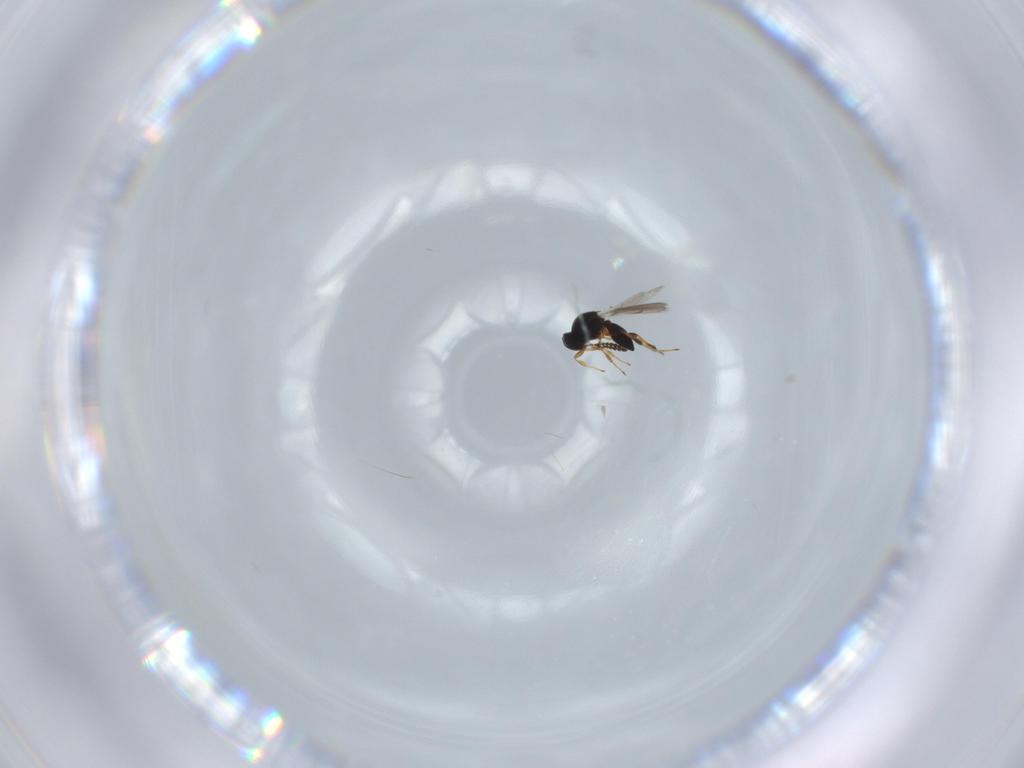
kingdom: Animalia
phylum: Arthropoda
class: Insecta
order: Hymenoptera
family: Platygastridae
